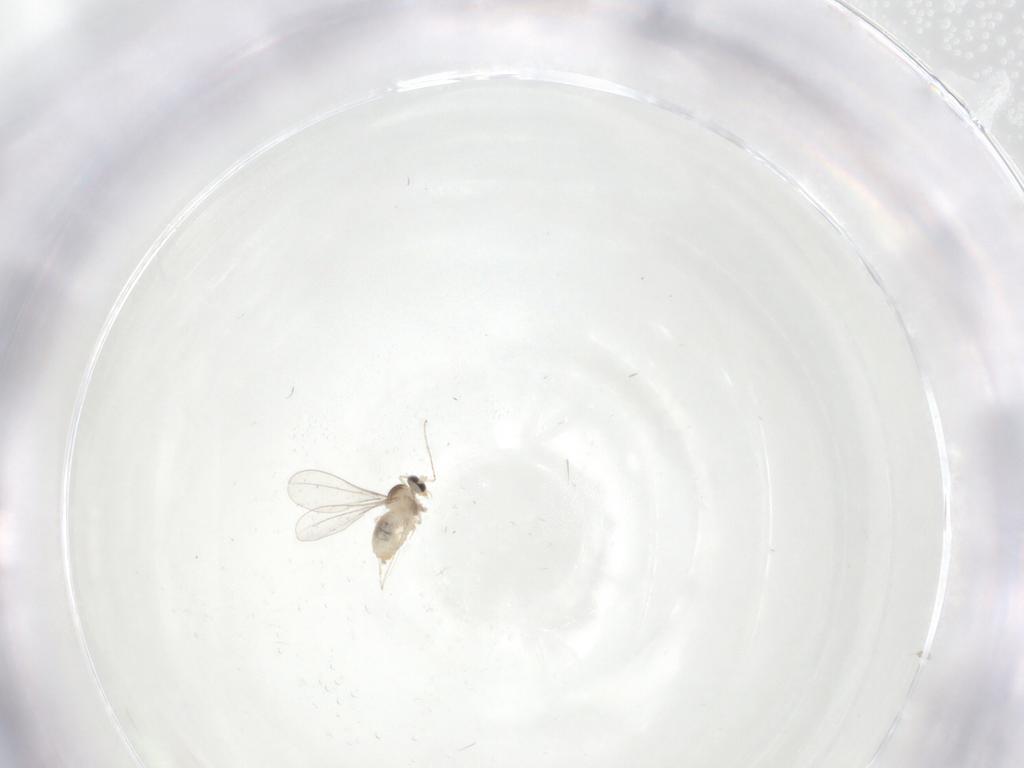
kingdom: Animalia
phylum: Arthropoda
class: Insecta
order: Diptera
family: Cecidomyiidae
